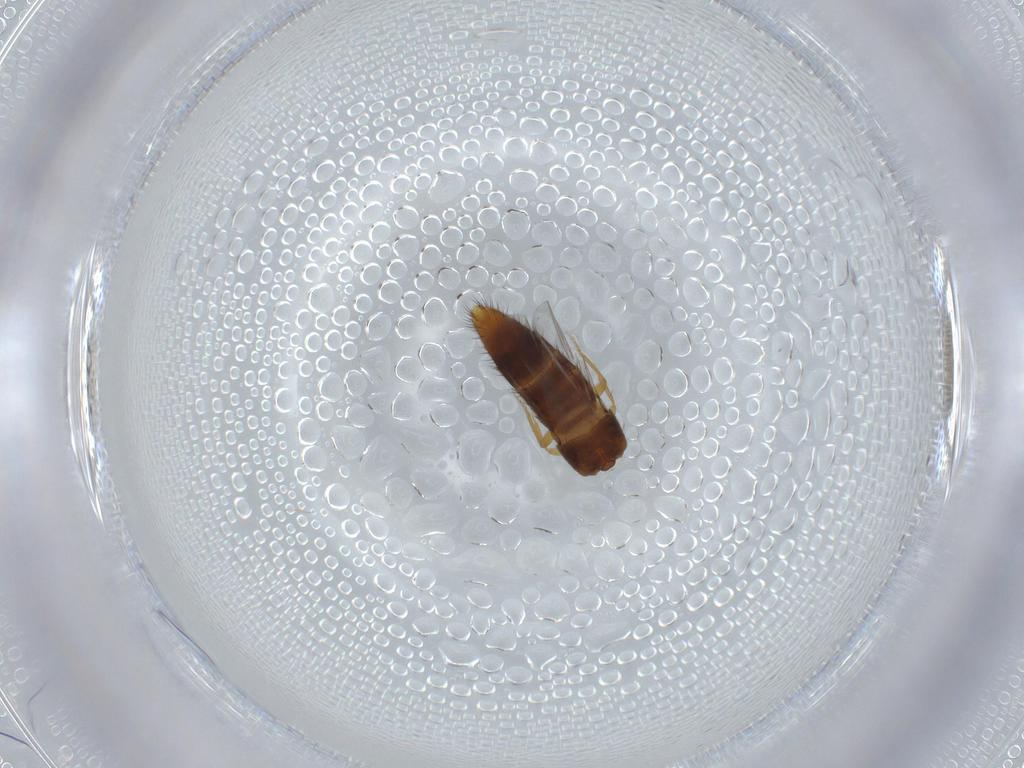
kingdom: Animalia
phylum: Arthropoda
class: Insecta
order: Coleoptera
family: Staphylinidae
